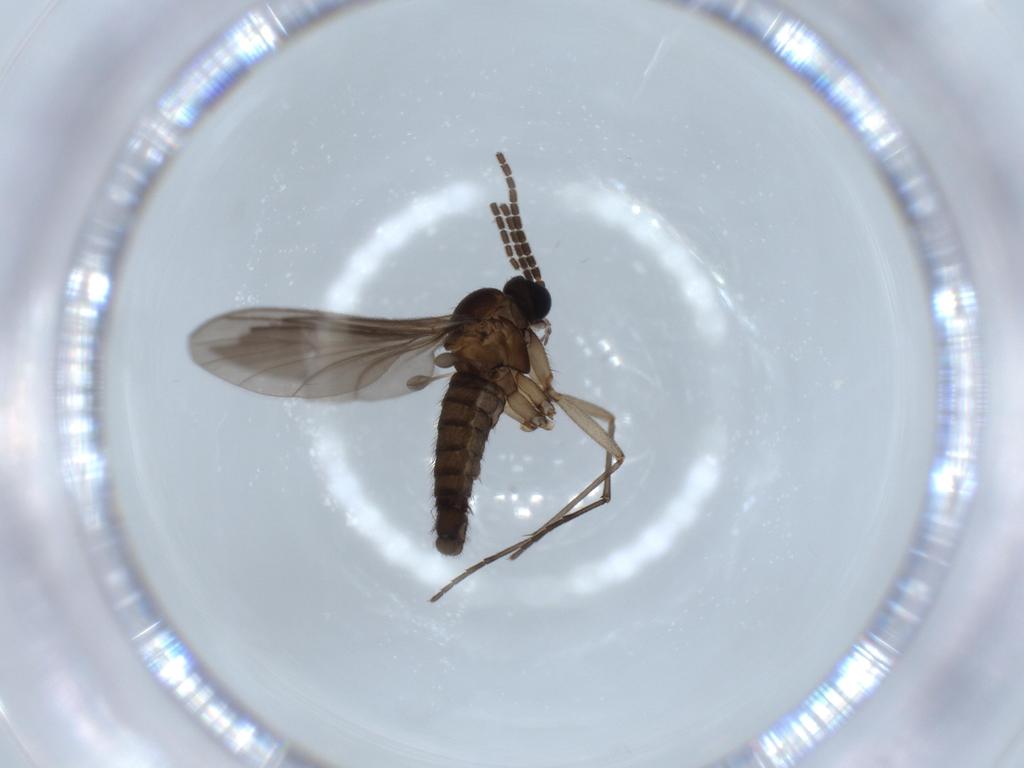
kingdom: Animalia
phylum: Arthropoda
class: Insecta
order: Diptera
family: Sciaridae
